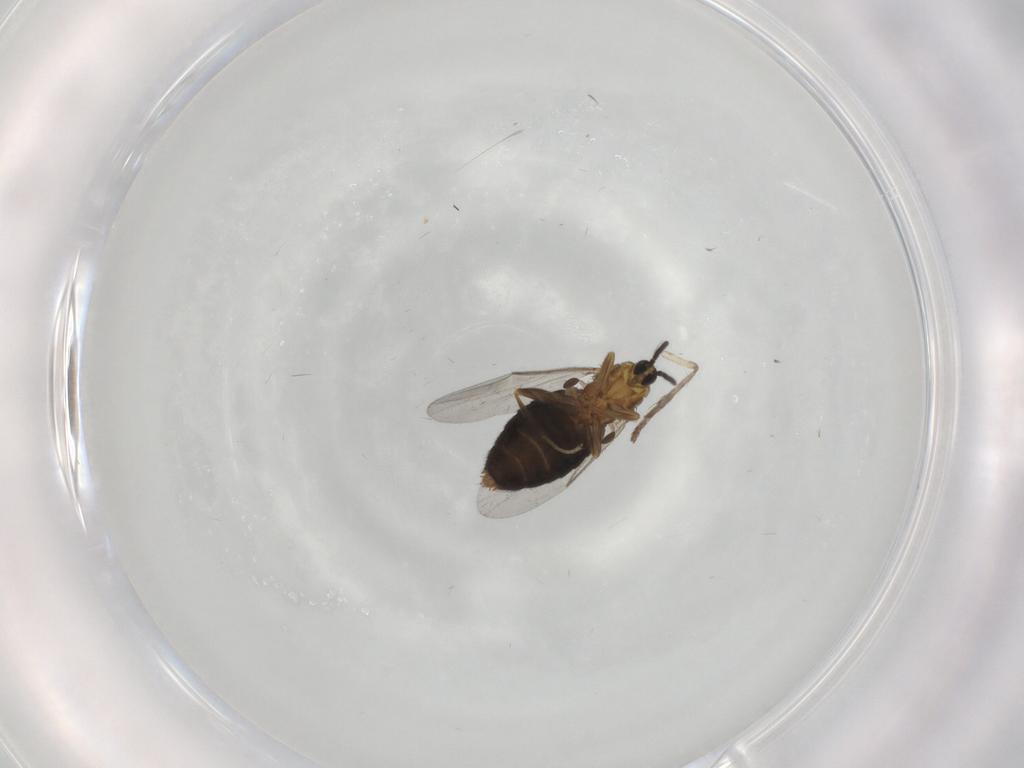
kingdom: Animalia
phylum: Arthropoda
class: Insecta
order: Diptera
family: Scatopsidae
